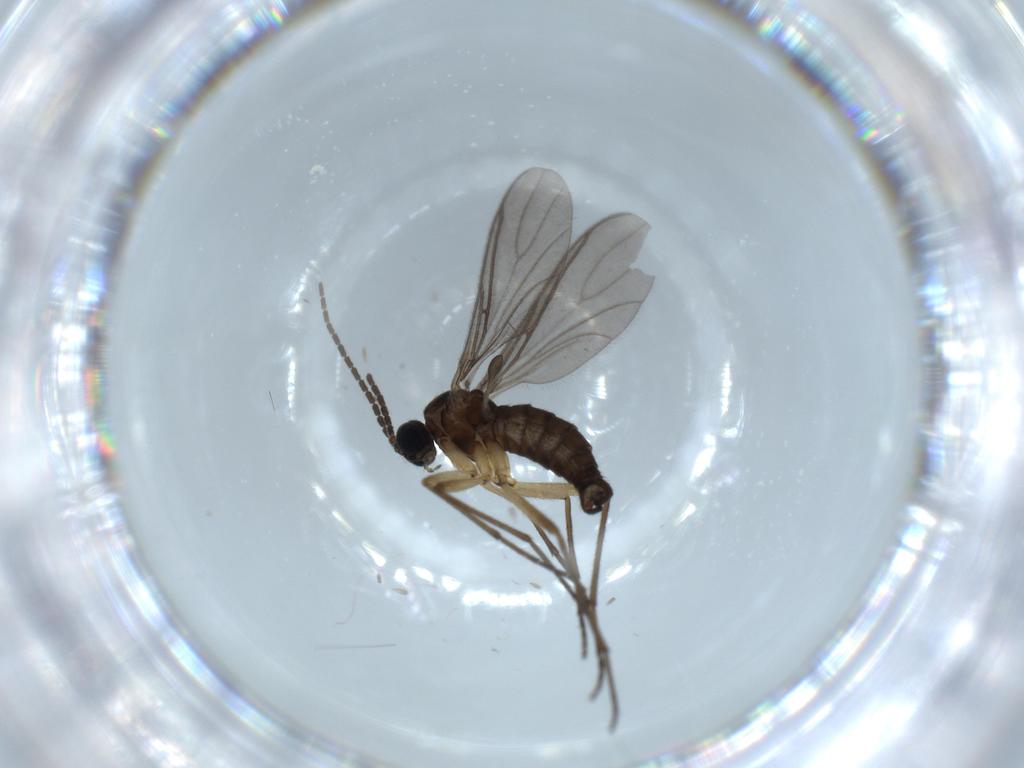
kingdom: Animalia
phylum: Arthropoda
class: Insecta
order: Diptera
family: Sciaridae
